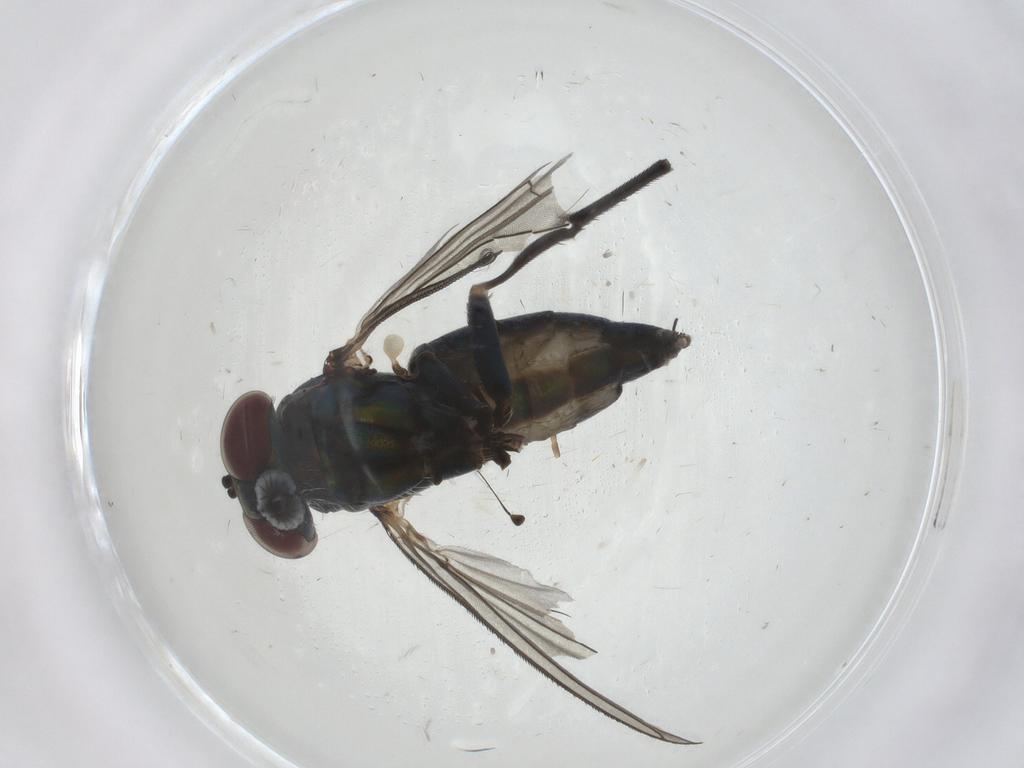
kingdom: Animalia
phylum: Arthropoda
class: Insecta
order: Diptera
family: Dolichopodidae
